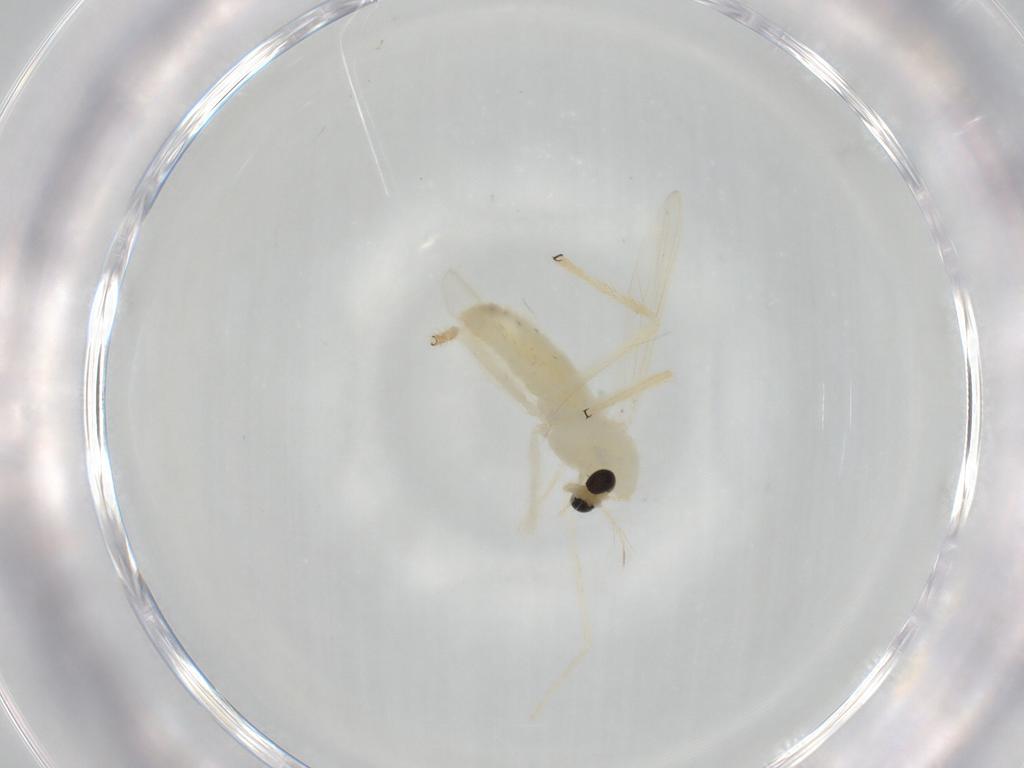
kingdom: Animalia
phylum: Arthropoda
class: Insecta
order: Diptera
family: Chironomidae
